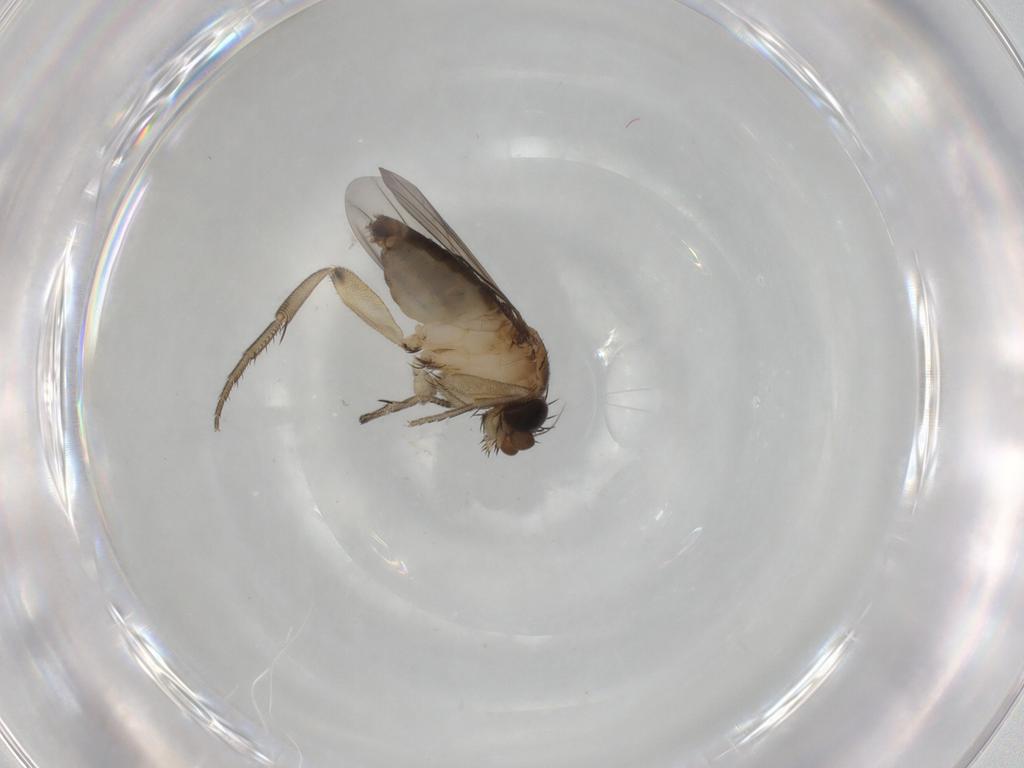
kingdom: Animalia
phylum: Arthropoda
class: Insecta
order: Diptera
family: Phoridae
